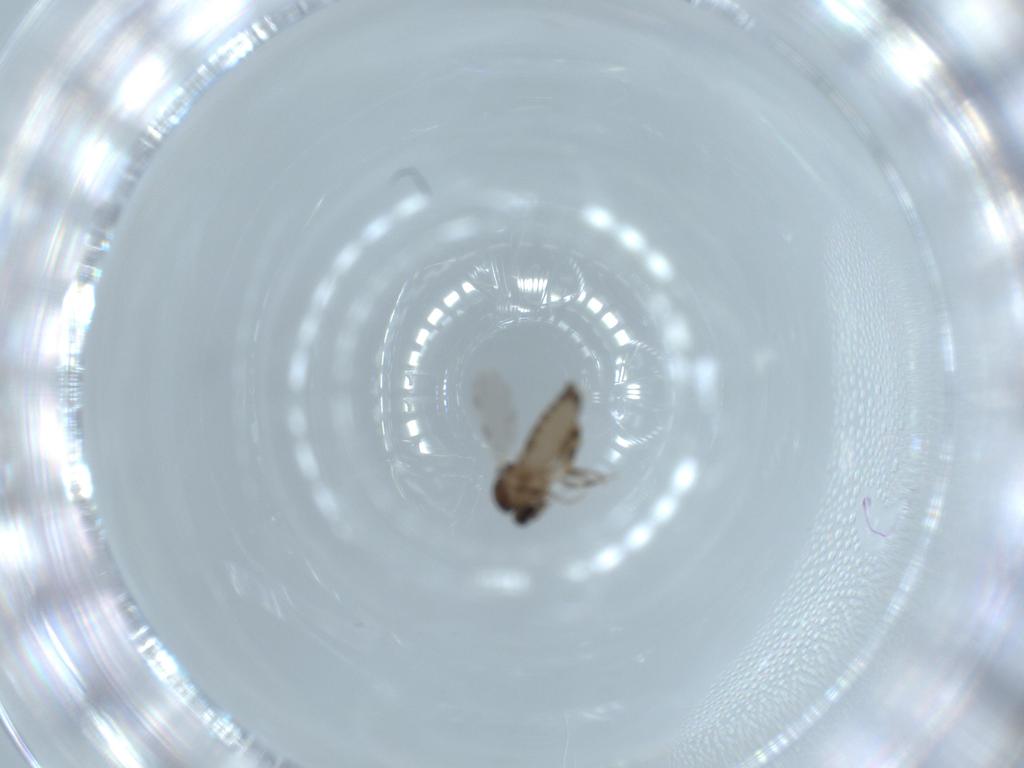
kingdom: Animalia
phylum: Arthropoda
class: Insecta
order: Diptera
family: Ceratopogonidae
